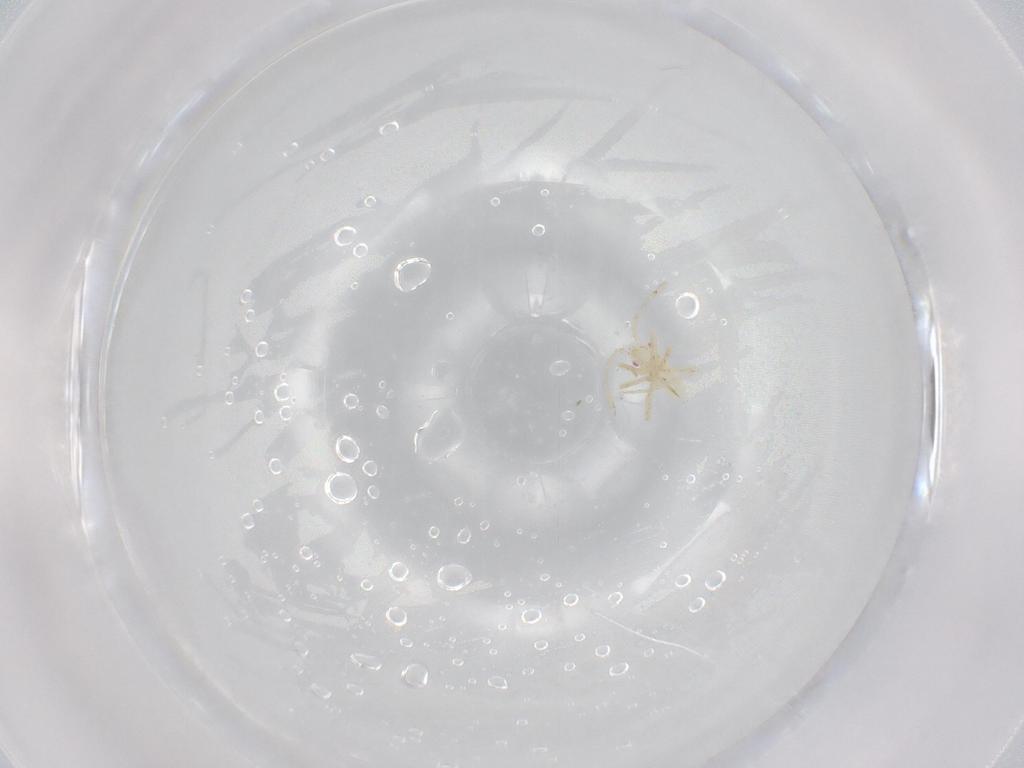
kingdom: Animalia
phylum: Arthropoda
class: Insecta
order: Hemiptera
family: Miridae
